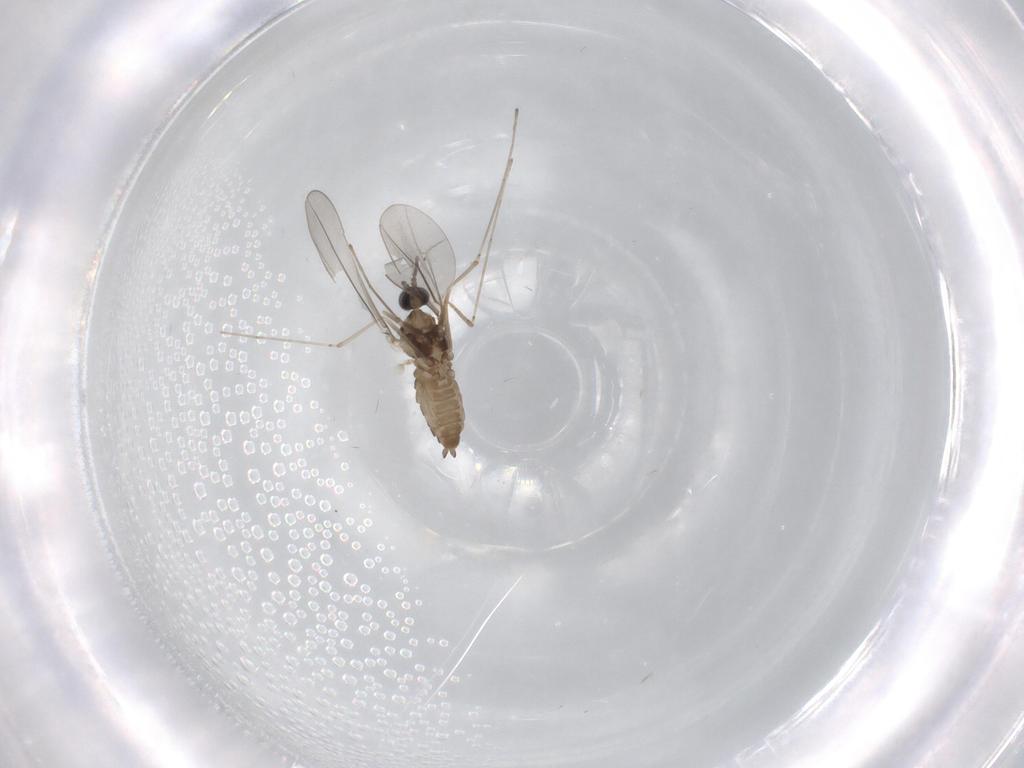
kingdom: Animalia
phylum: Arthropoda
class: Insecta
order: Diptera
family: Cecidomyiidae
